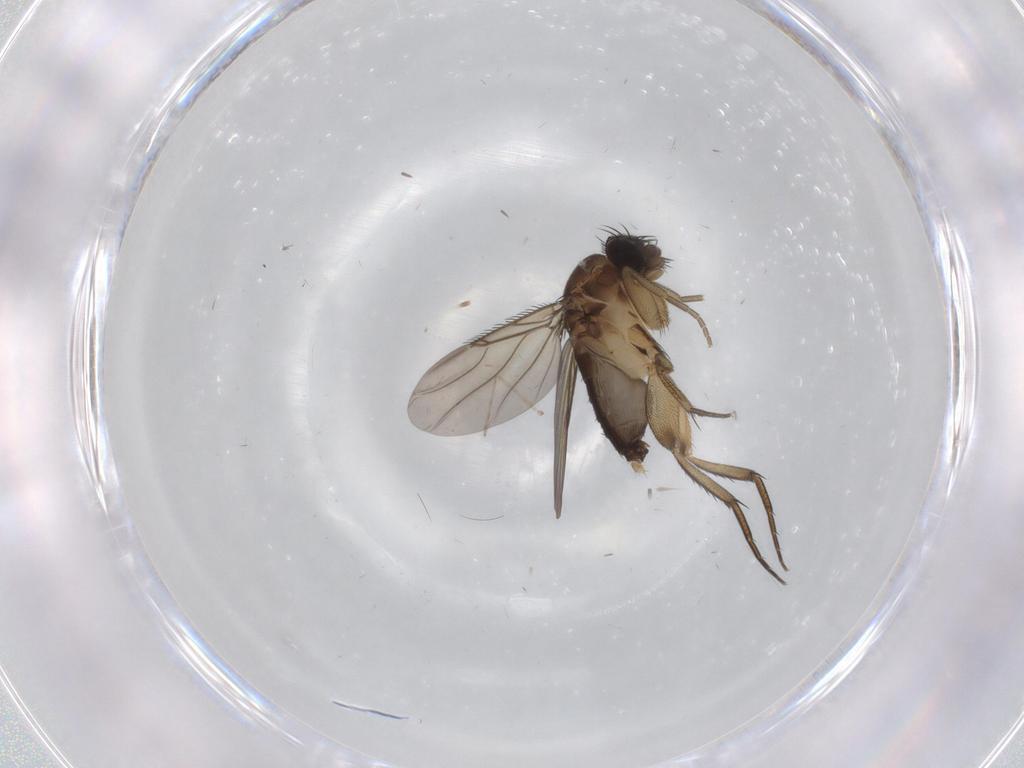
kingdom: Animalia
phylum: Arthropoda
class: Insecta
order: Diptera
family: Phoridae
